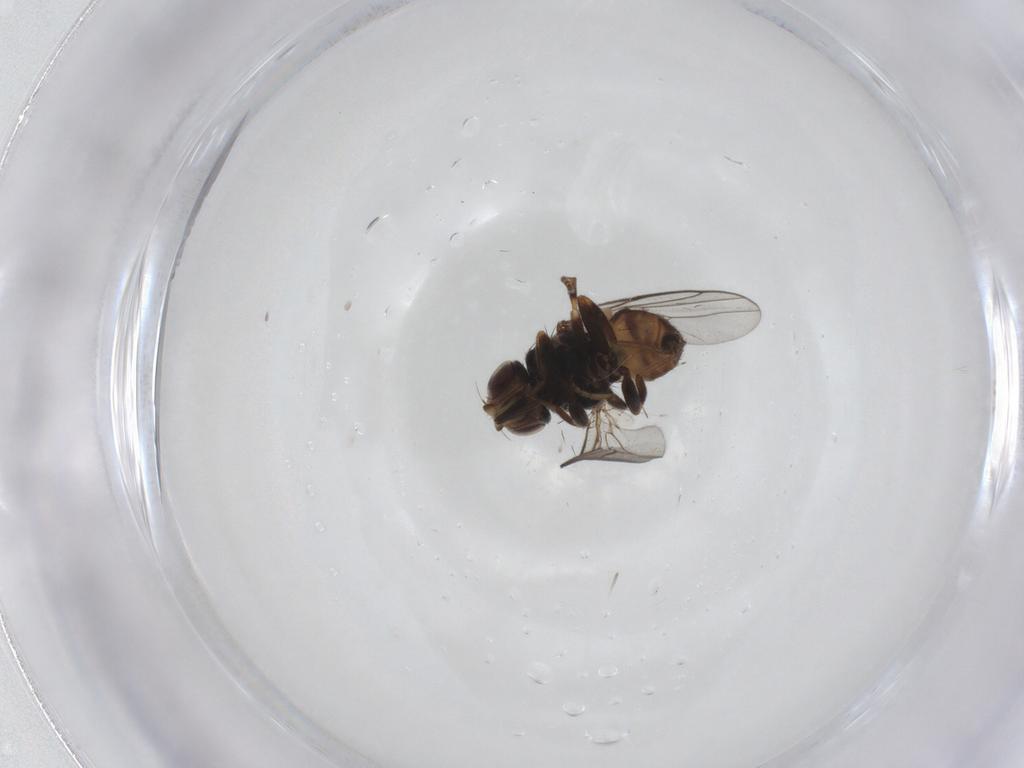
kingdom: Animalia
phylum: Arthropoda
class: Insecta
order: Diptera
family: Chloropidae
